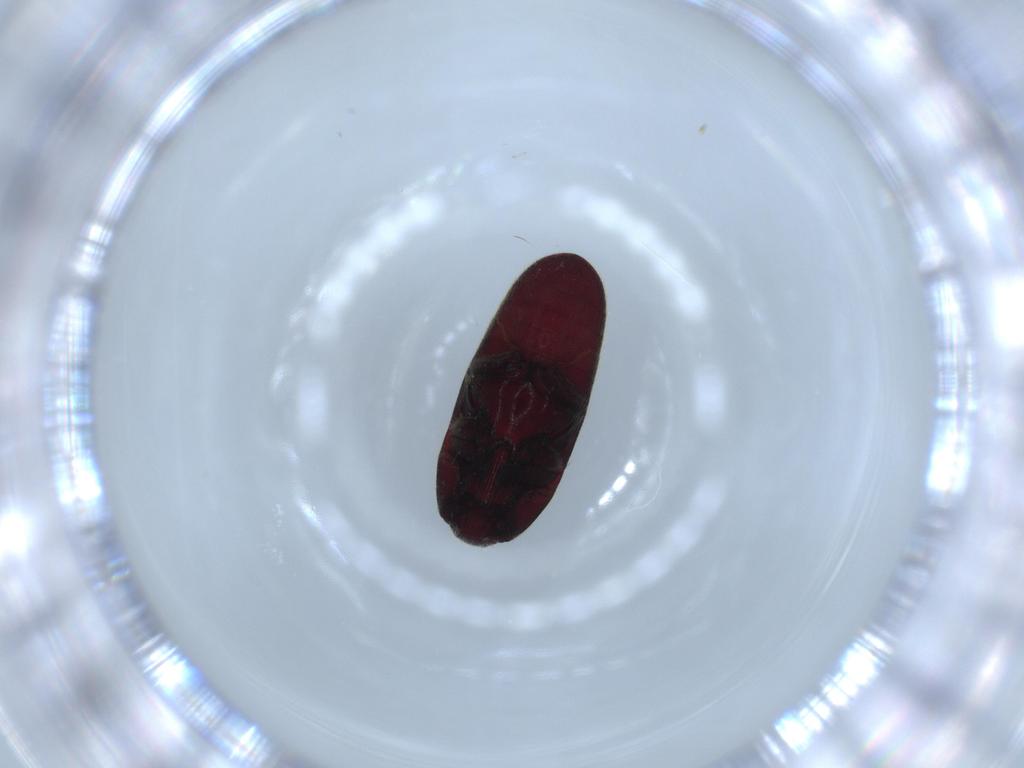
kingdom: Animalia
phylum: Arthropoda
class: Insecta
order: Coleoptera
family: Throscidae
